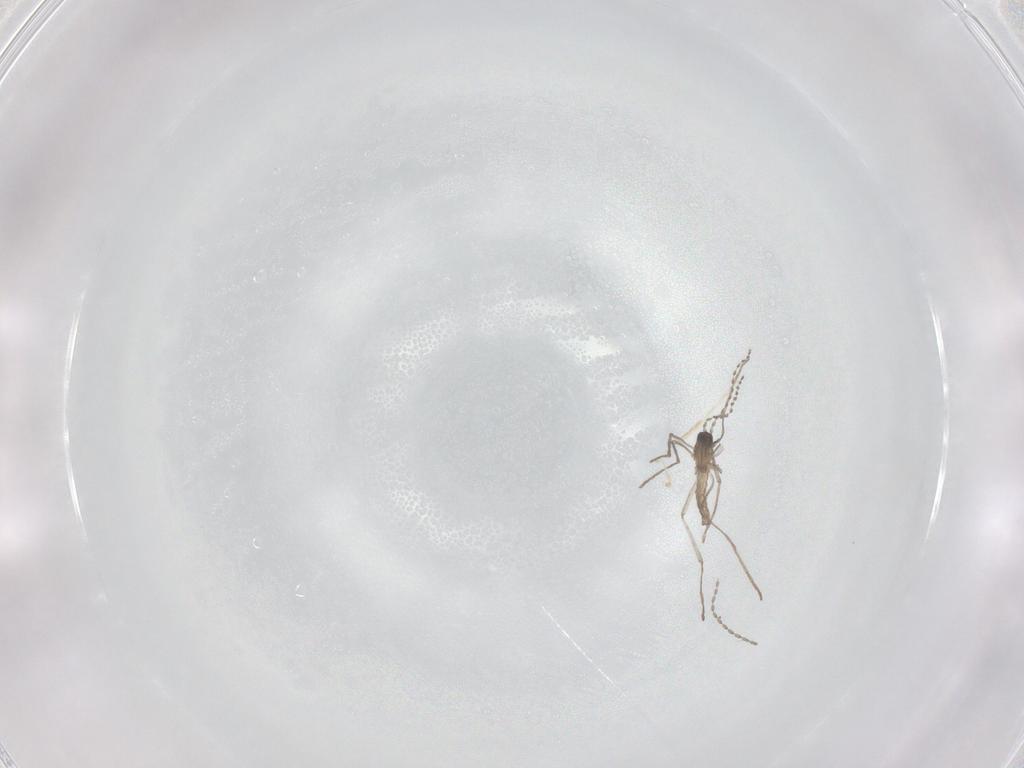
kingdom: Animalia
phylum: Arthropoda
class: Insecta
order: Diptera
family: Cecidomyiidae
